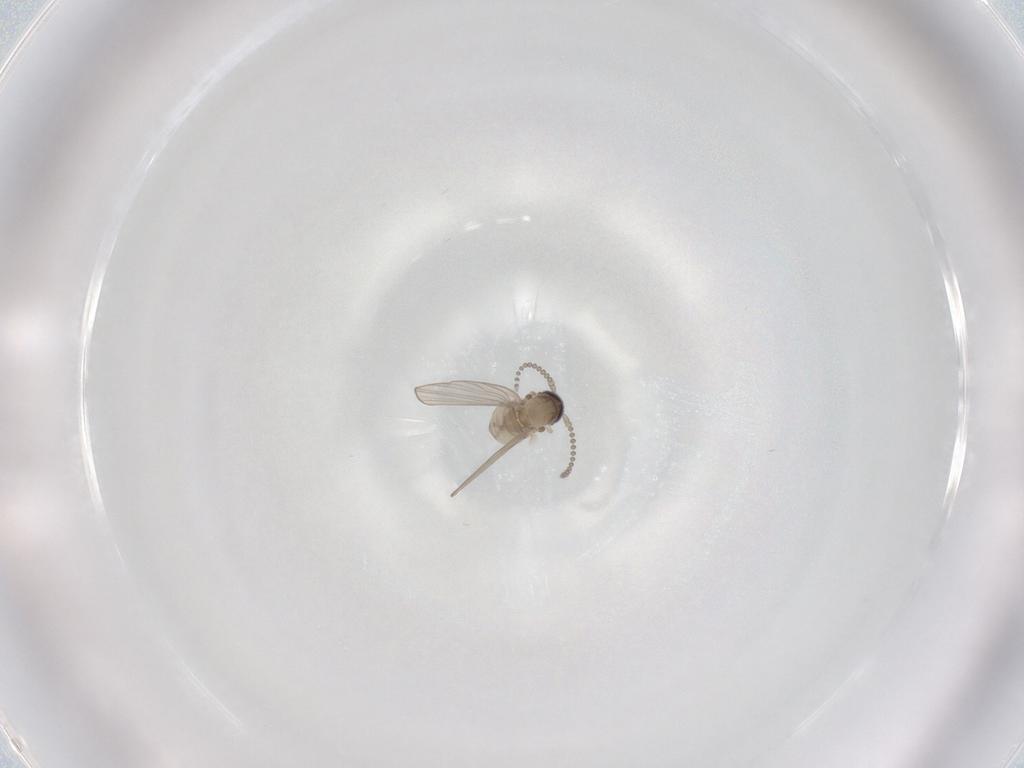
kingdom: Animalia
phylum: Arthropoda
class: Insecta
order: Diptera
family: Psychodidae
